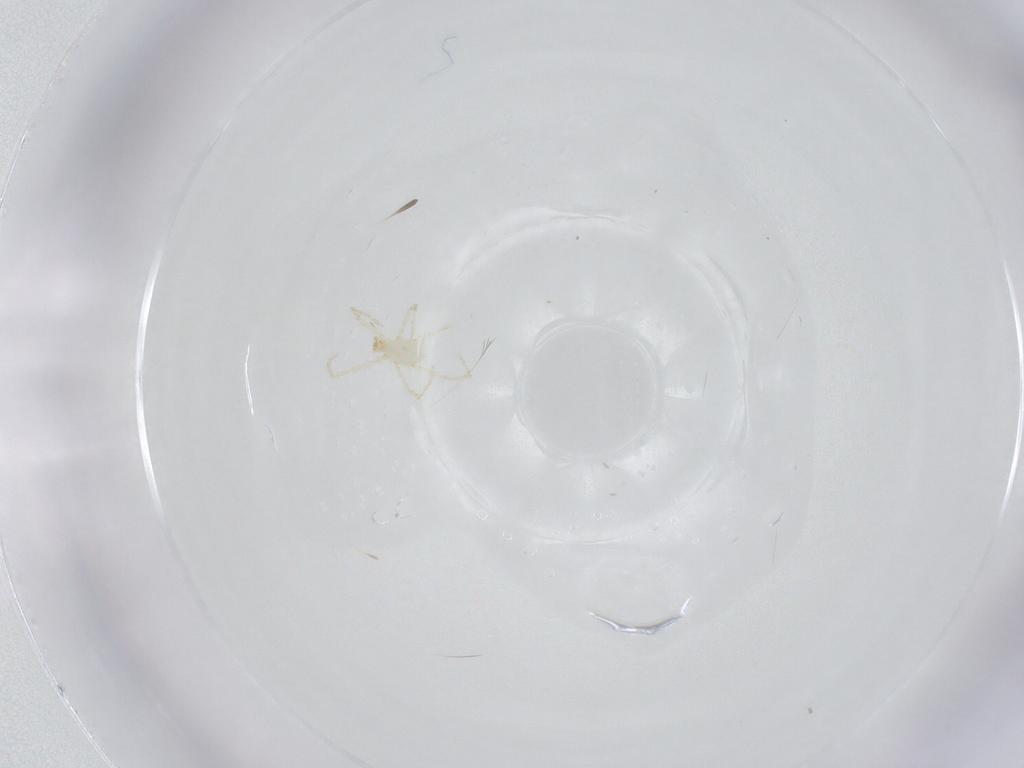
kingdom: Animalia
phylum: Arthropoda
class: Arachnida
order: Trombidiformes
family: Erythraeidae
